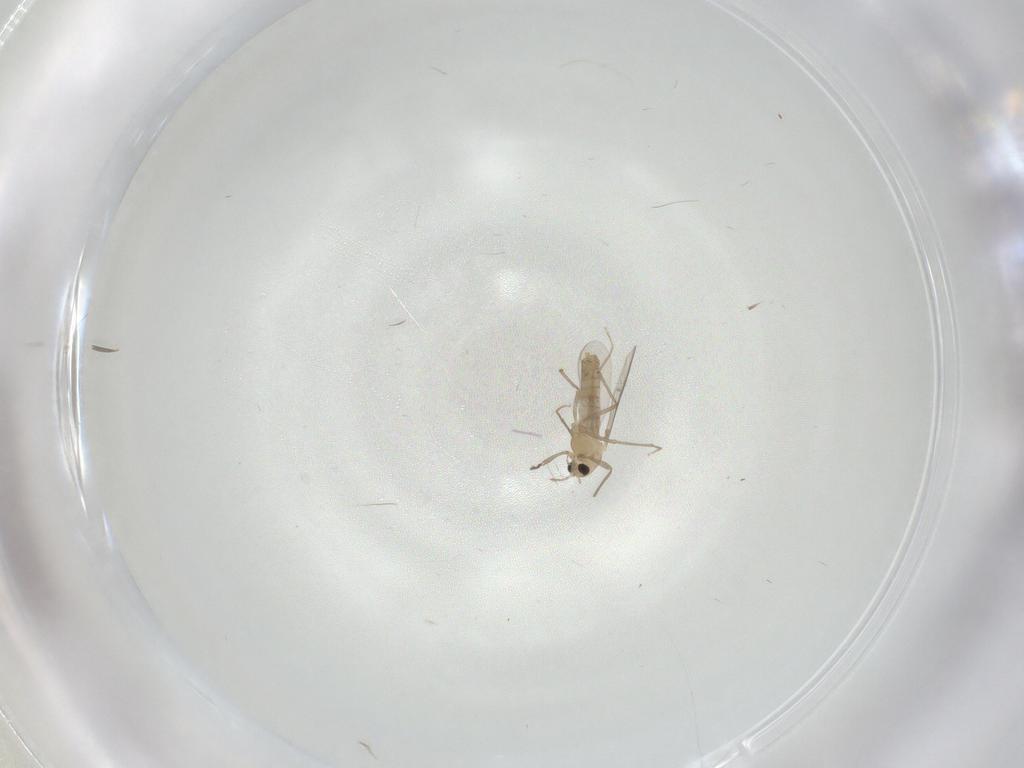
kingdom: Animalia
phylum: Arthropoda
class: Insecta
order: Diptera
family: Cecidomyiidae
